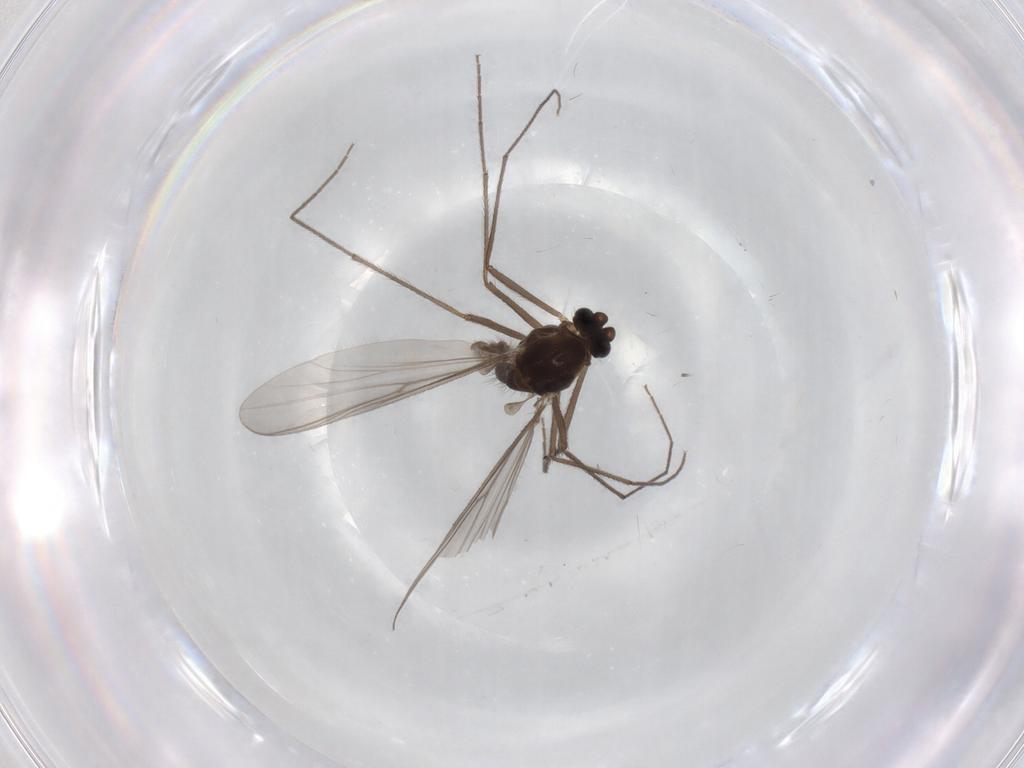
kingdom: Animalia
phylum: Arthropoda
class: Insecta
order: Diptera
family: Chironomidae
